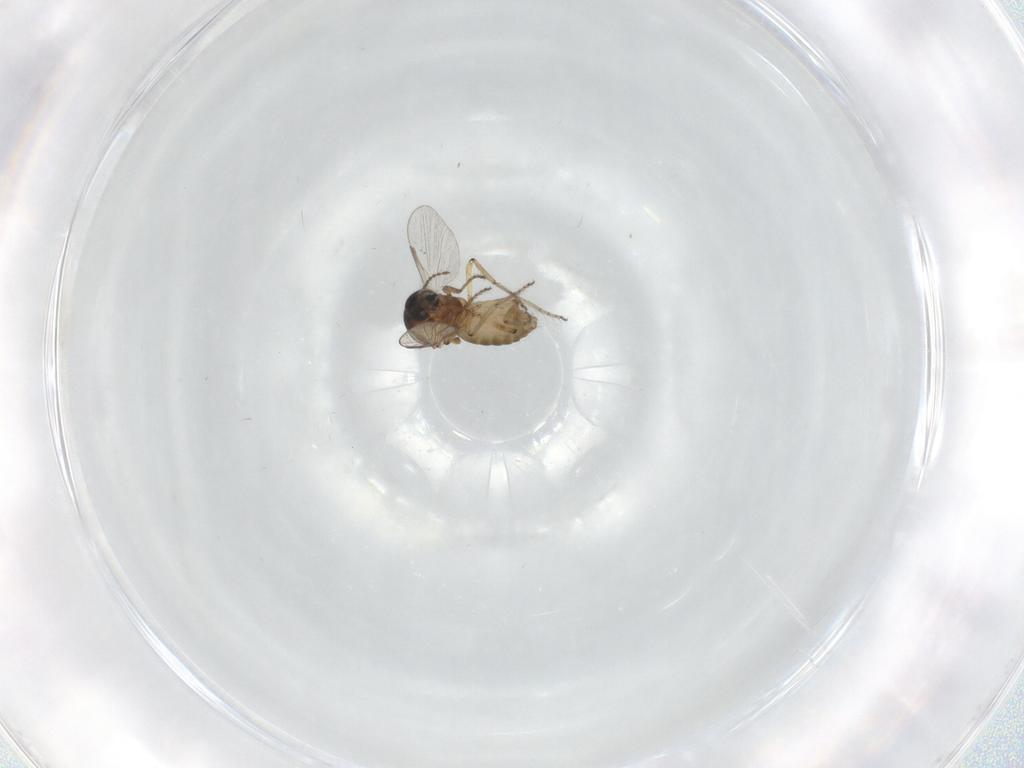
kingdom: Animalia
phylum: Arthropoda
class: Insecta
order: Diptera
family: Ceratopogonidae
